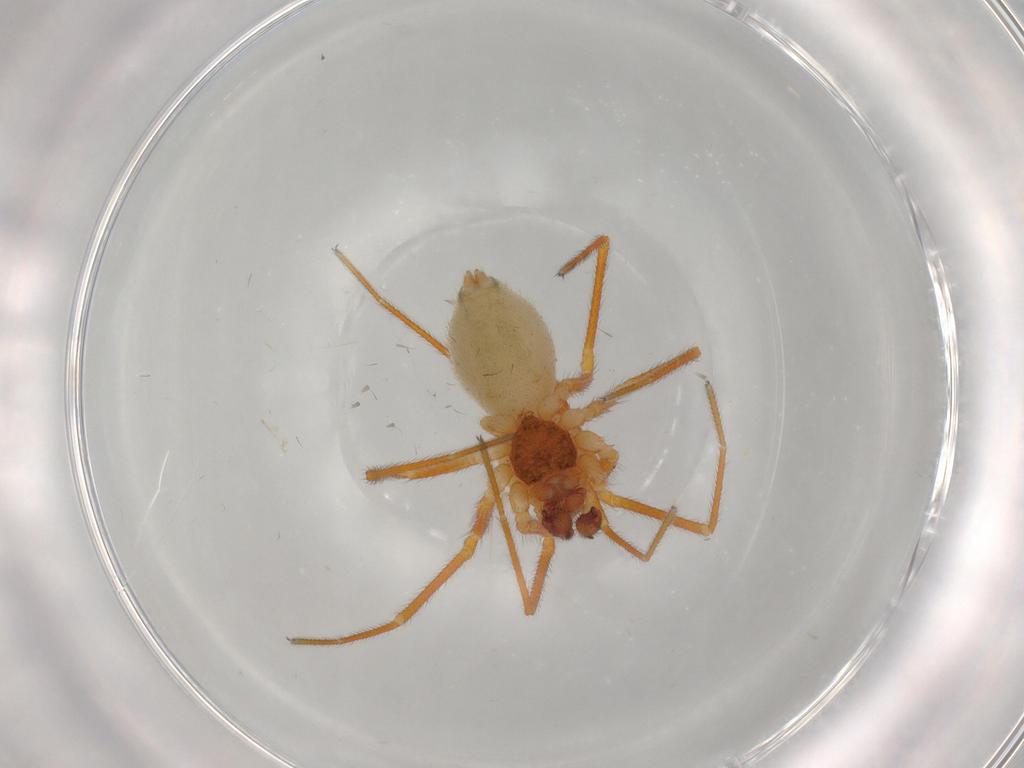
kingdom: Animalia
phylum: Arthropoda
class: Arachnida
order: Araneae
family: Linyphiidae
